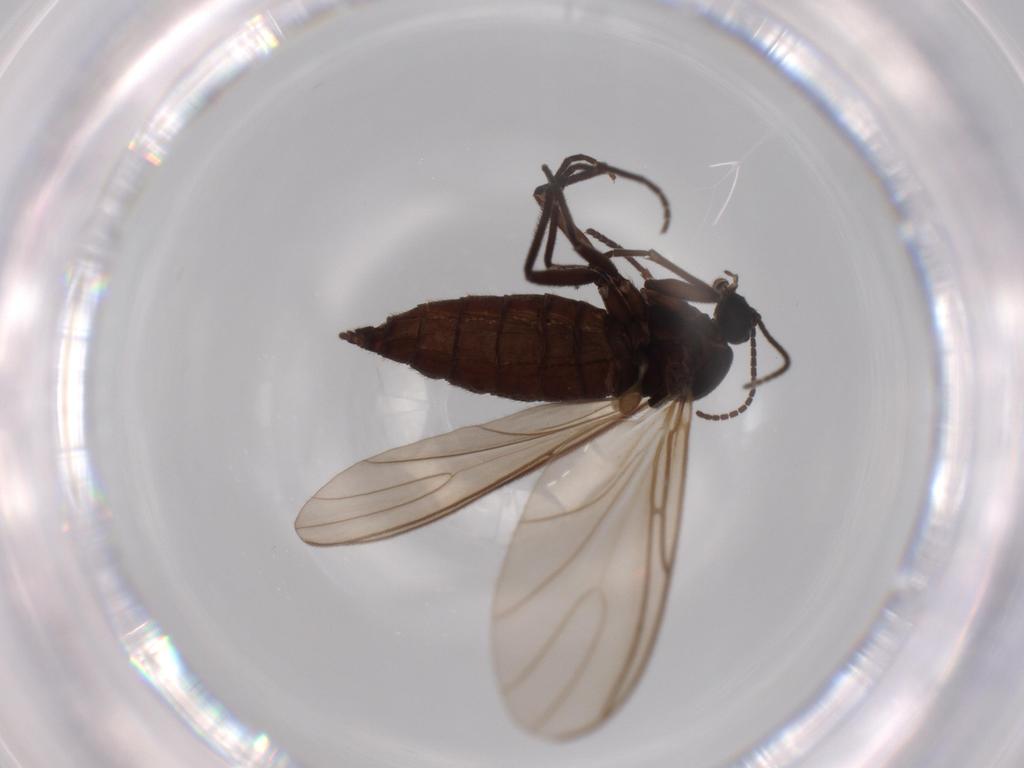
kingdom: Animalia
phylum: Arthropoda
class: Insecta
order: Diptera
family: Sciaridae
